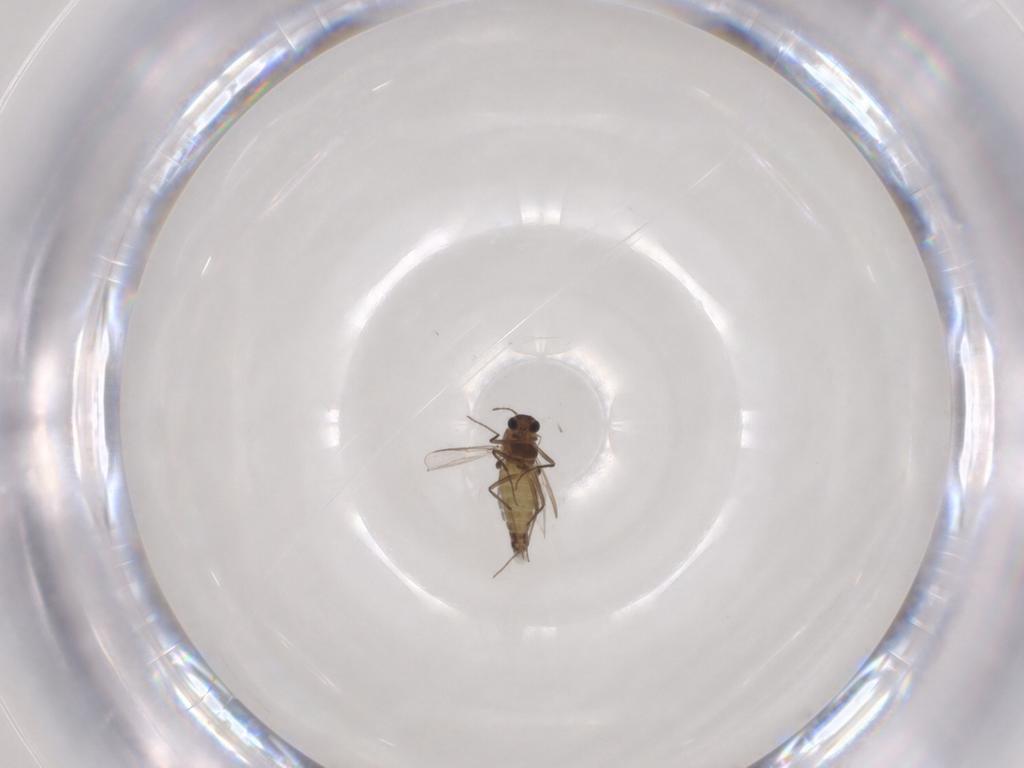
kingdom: Animalia
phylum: Arthropoda
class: Insecta
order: Diptera
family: Chironomidae
